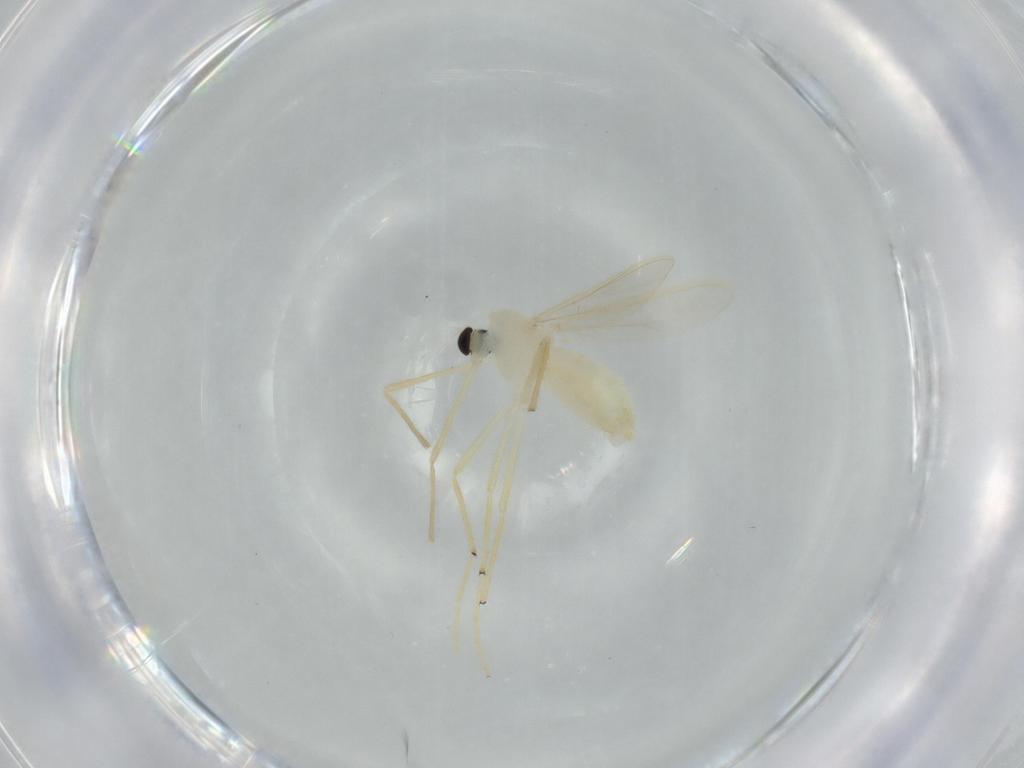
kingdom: Animalia
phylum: Arthropoda
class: Insecta
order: Diptera
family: Chironomidae
